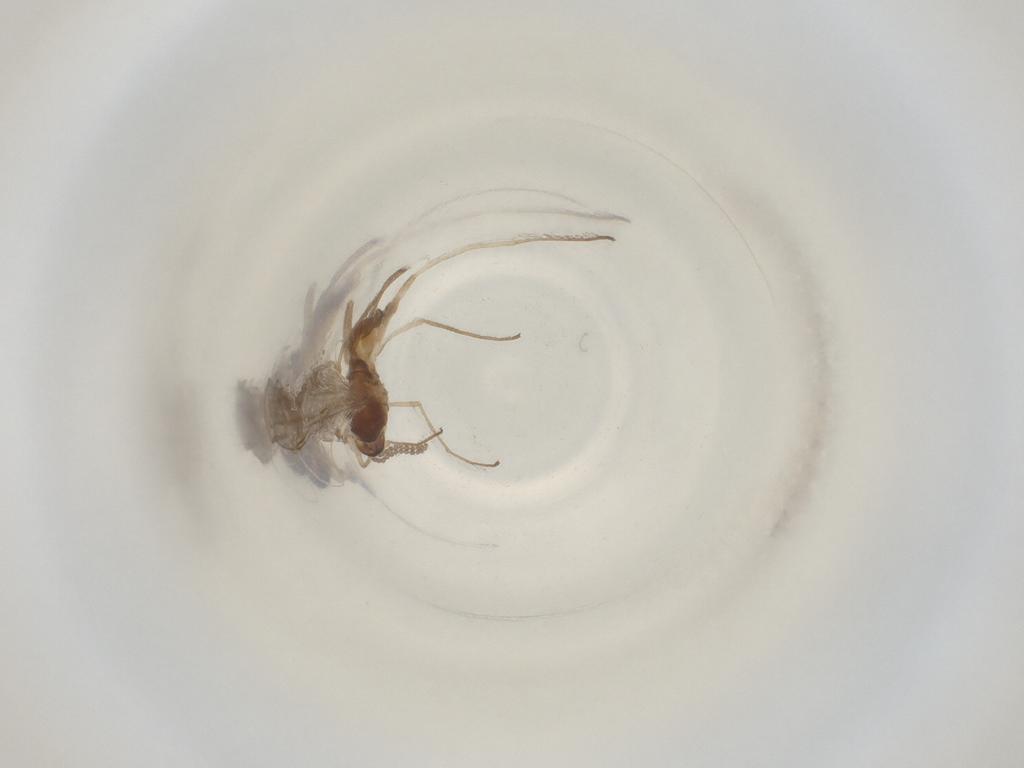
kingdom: Animalia
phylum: Arthropoda
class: Insecta
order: Diptera
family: Cecidomyiidae
